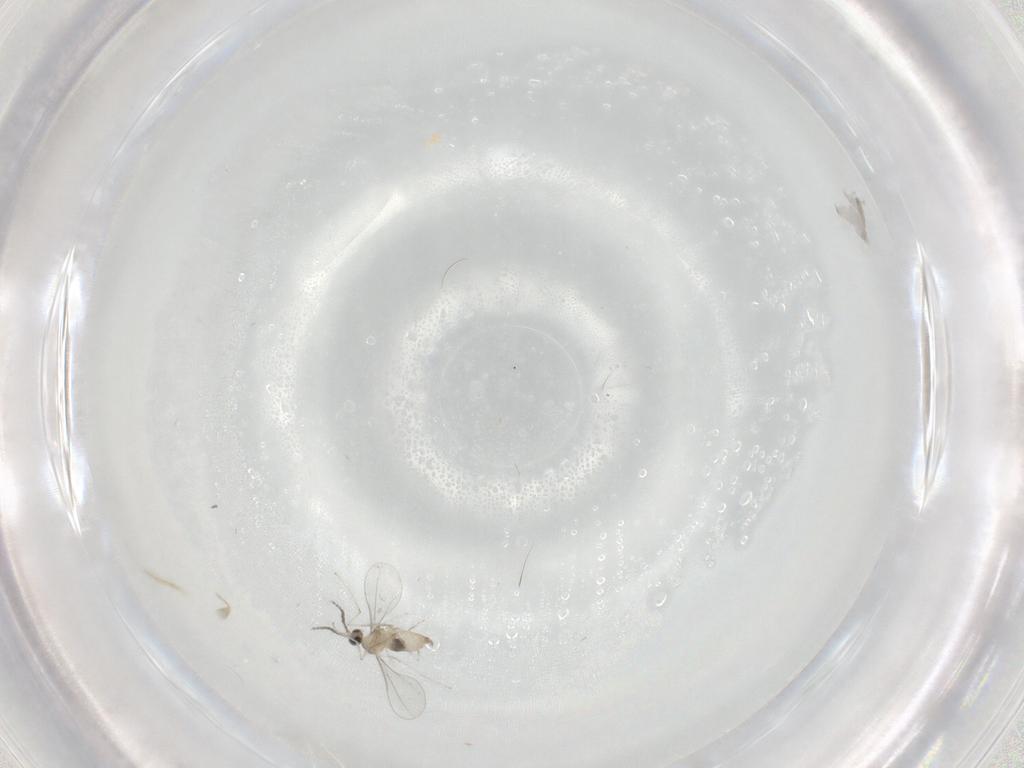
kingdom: Animalia
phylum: Arthropoda
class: Insecta
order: Diptera
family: Cecidomyiidae
